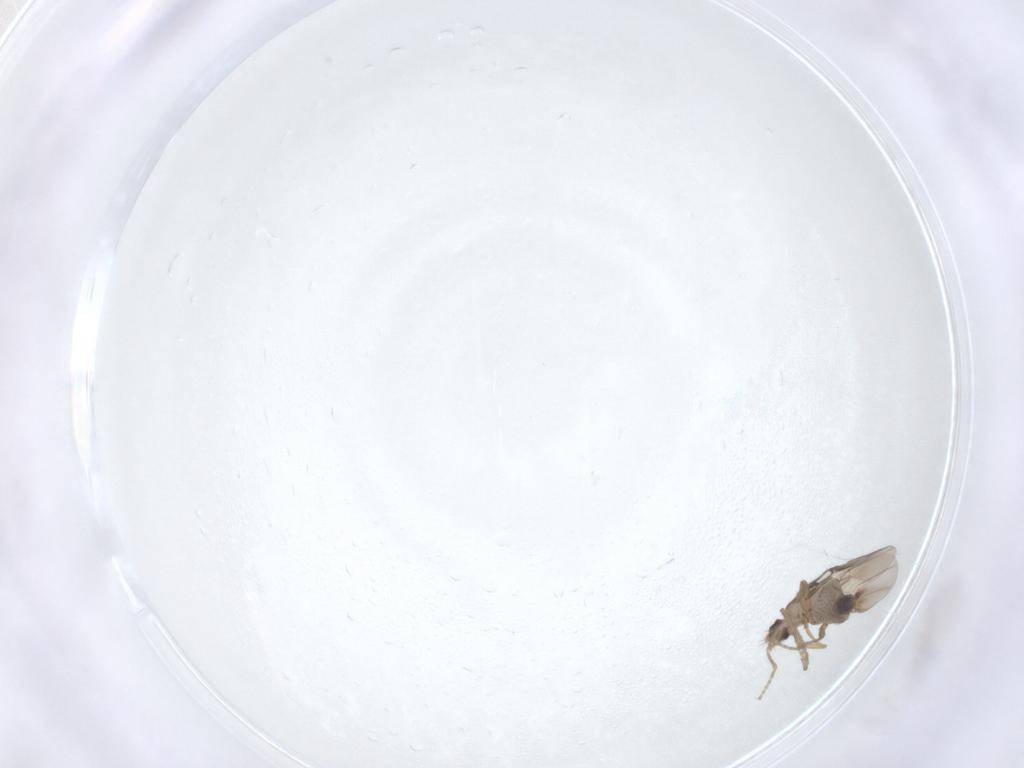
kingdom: Animalia
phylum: Arthropoda
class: Insecta
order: Diptera
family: Phoridae
